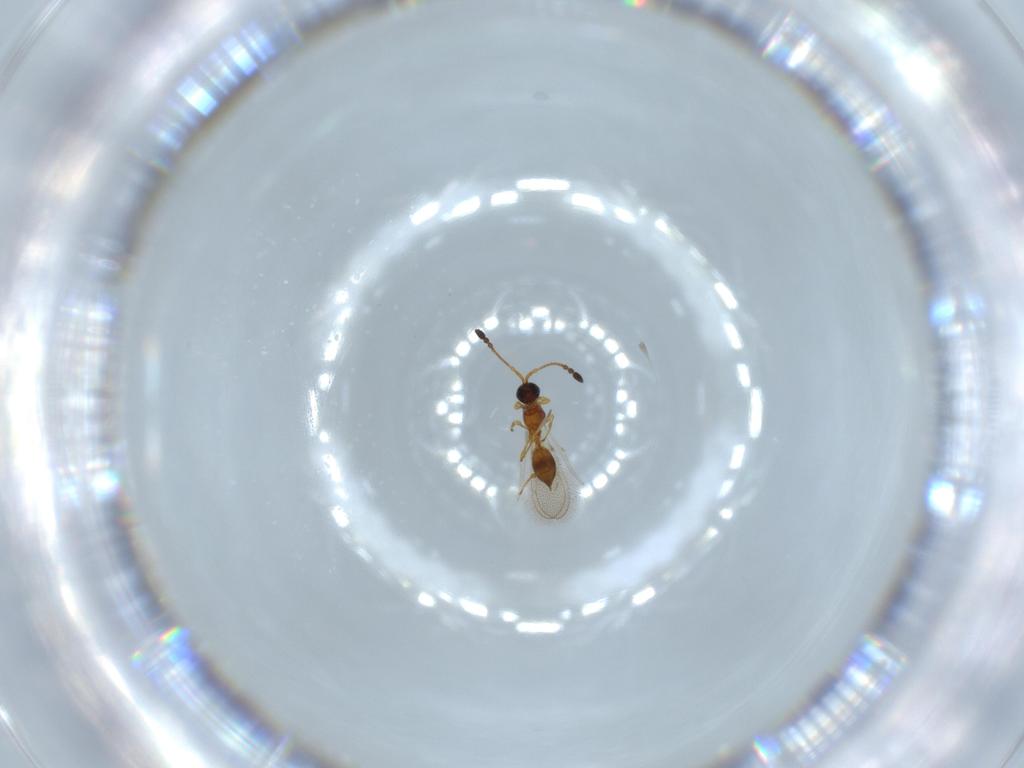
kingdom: Animalia
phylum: Arthropoda
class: Insecta
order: Hymenoptera
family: Diapriidae
